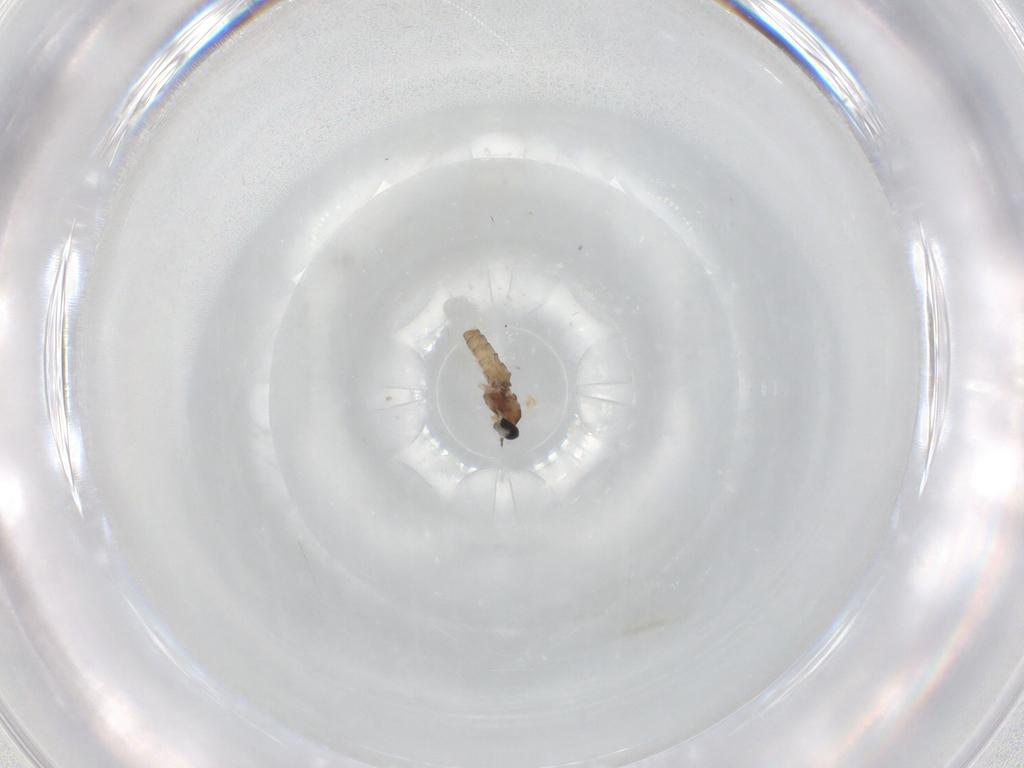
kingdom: Animalia
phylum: Arthropoda
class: Insecta
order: Diptera
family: Cecidomyiidae
